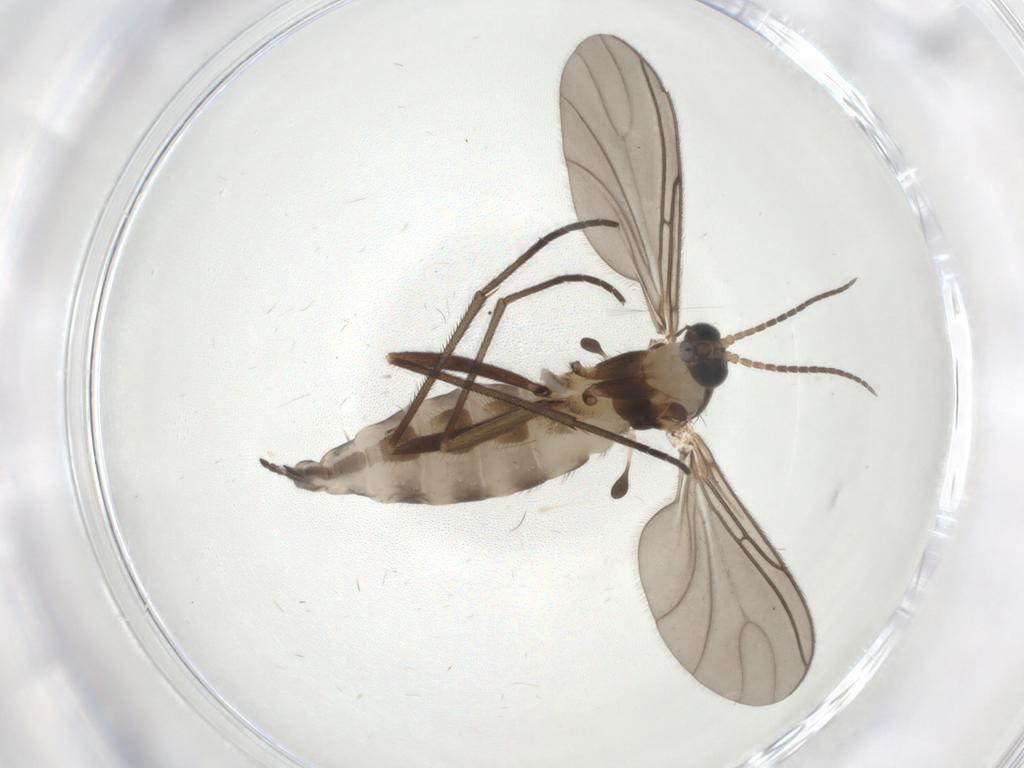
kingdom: Animalia
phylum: Arthropoda
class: Insecta
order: Diptera
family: Sciaridae
